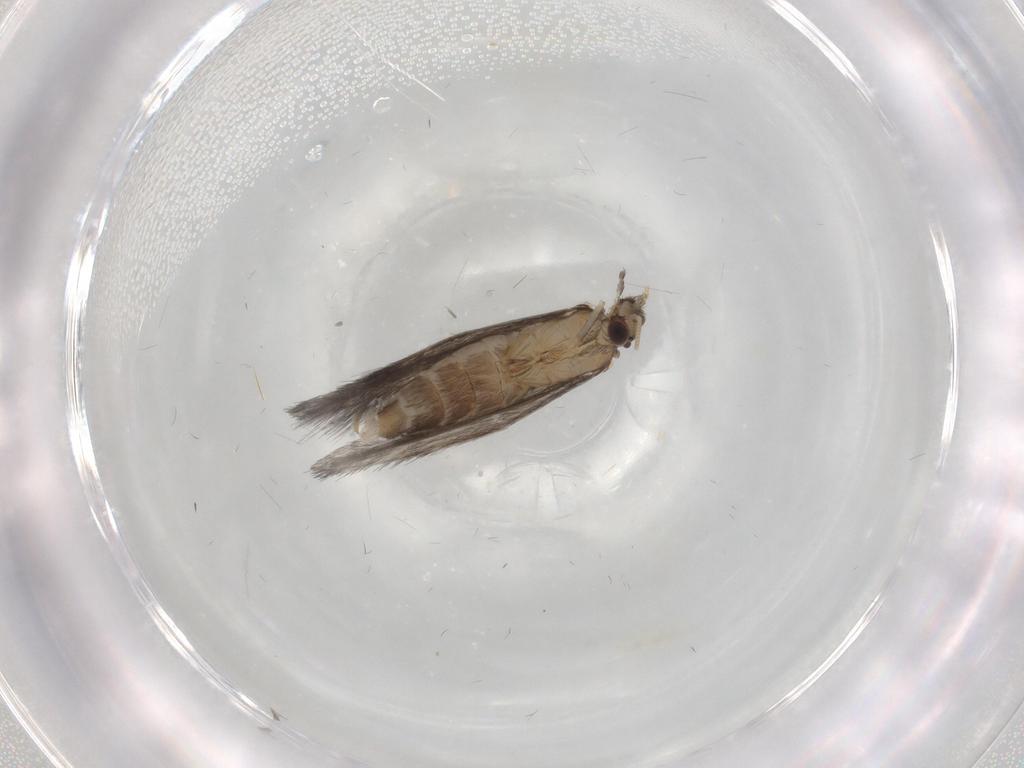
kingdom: Animalia
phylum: Arthropoda
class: Insecta
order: Trichoptera
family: Hydroptilidae
